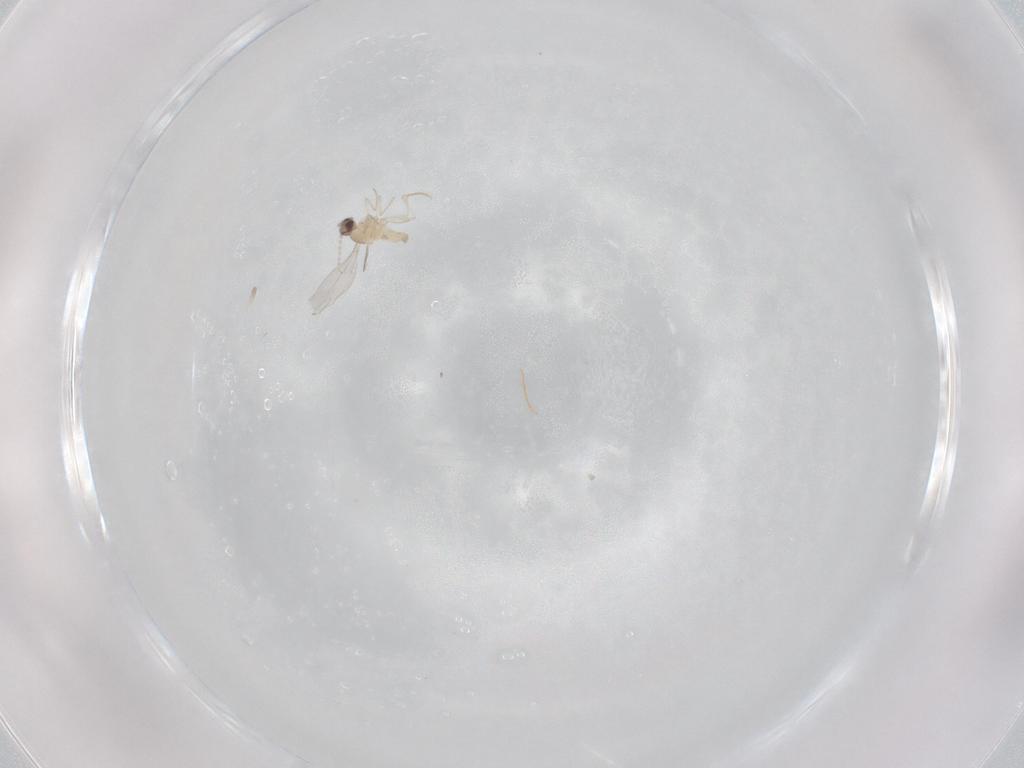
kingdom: Animalia
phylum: Arthropoda
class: Insecta
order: Diptera
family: Cecidomyiidae
